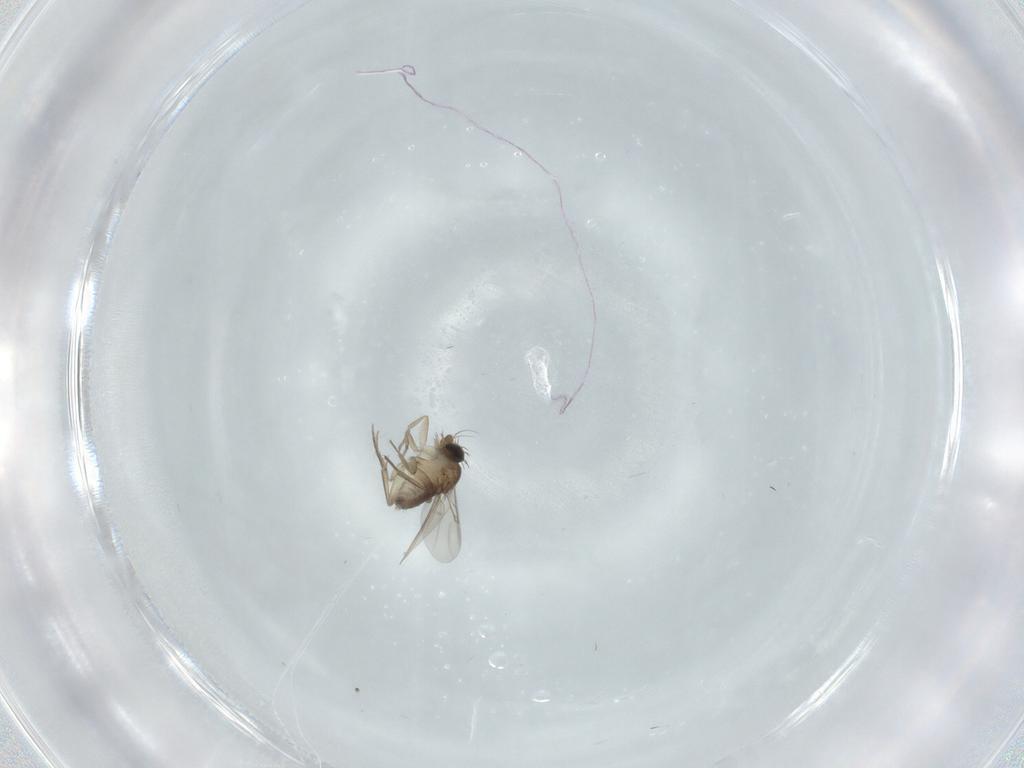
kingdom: Animalia
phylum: Arthropoda
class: Insecta
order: Diptera
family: Phoridae
